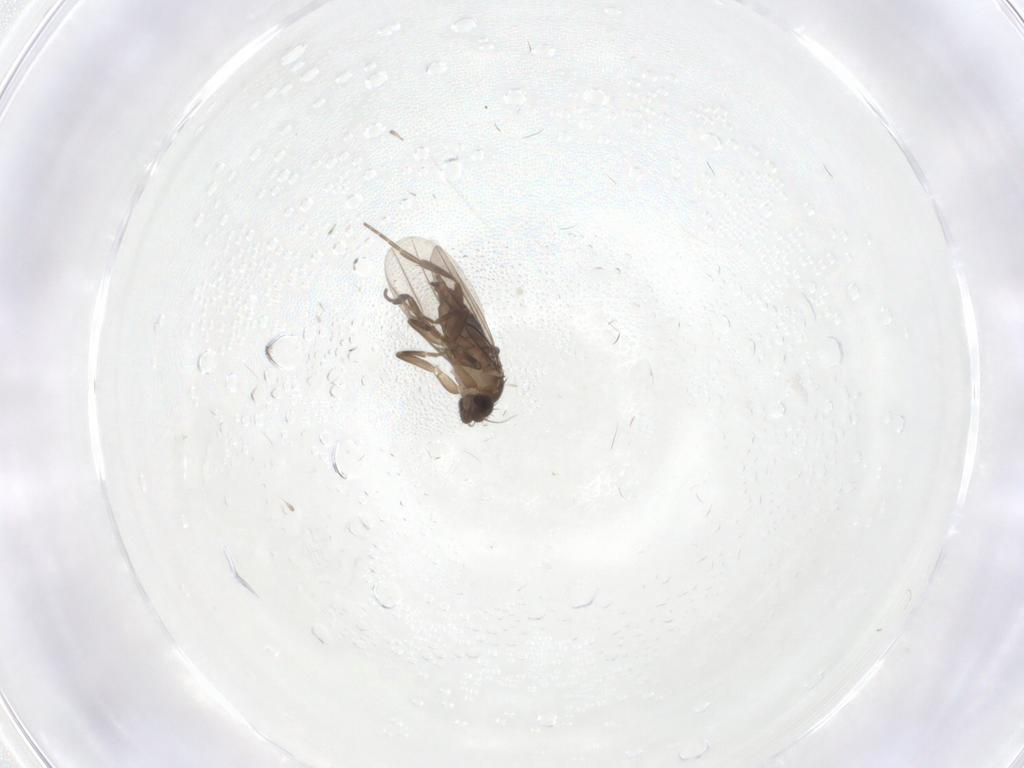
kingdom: Animalia
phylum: Arthropoda
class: Insecta
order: Diptera
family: Phoridae
